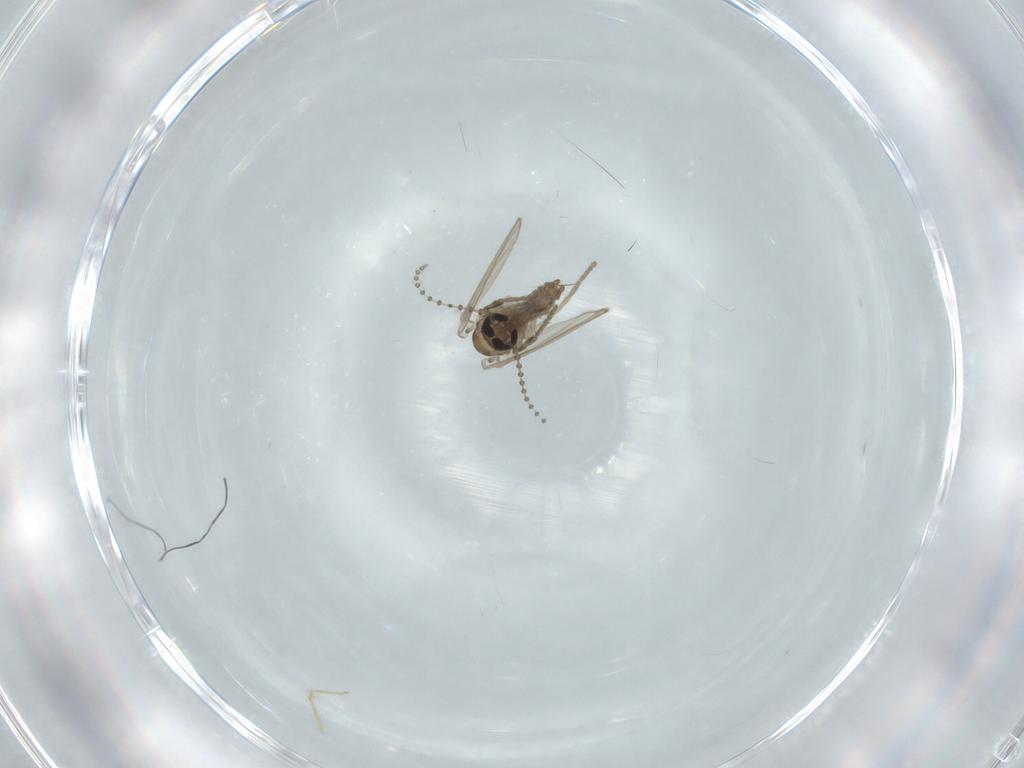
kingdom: Animalia
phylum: Arthropoda
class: Insecta
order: Diptera
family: Psychodidae
